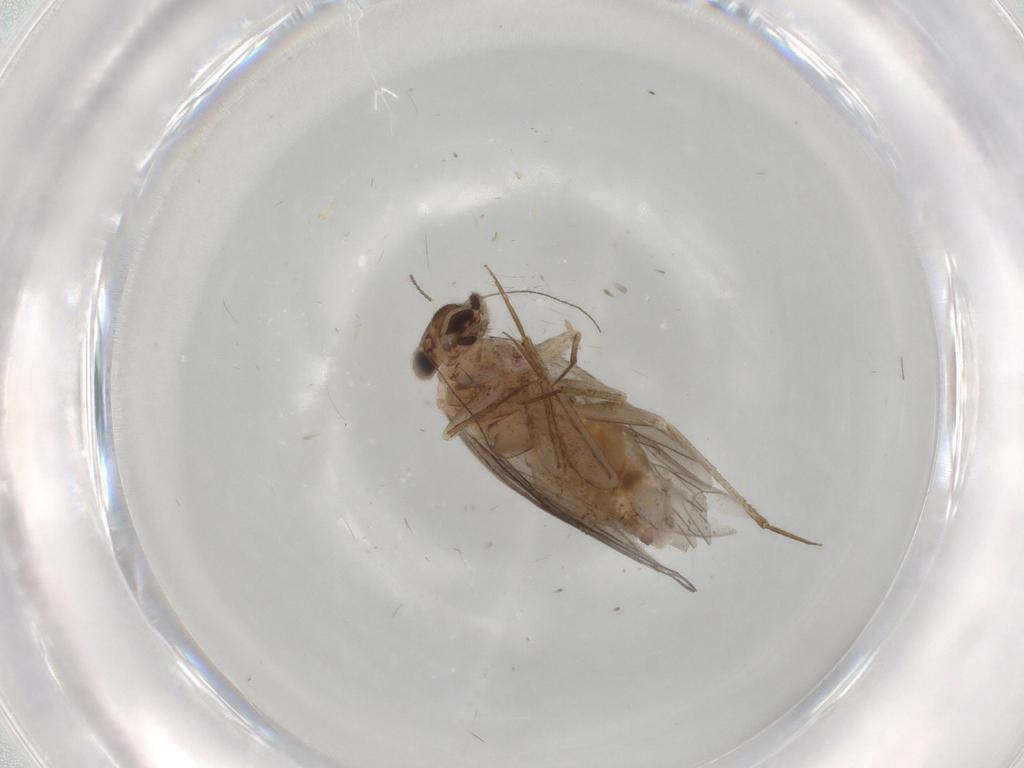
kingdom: Animalia
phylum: Arthropoda
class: Insecta
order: Psocodea
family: Lepidopsocidae
